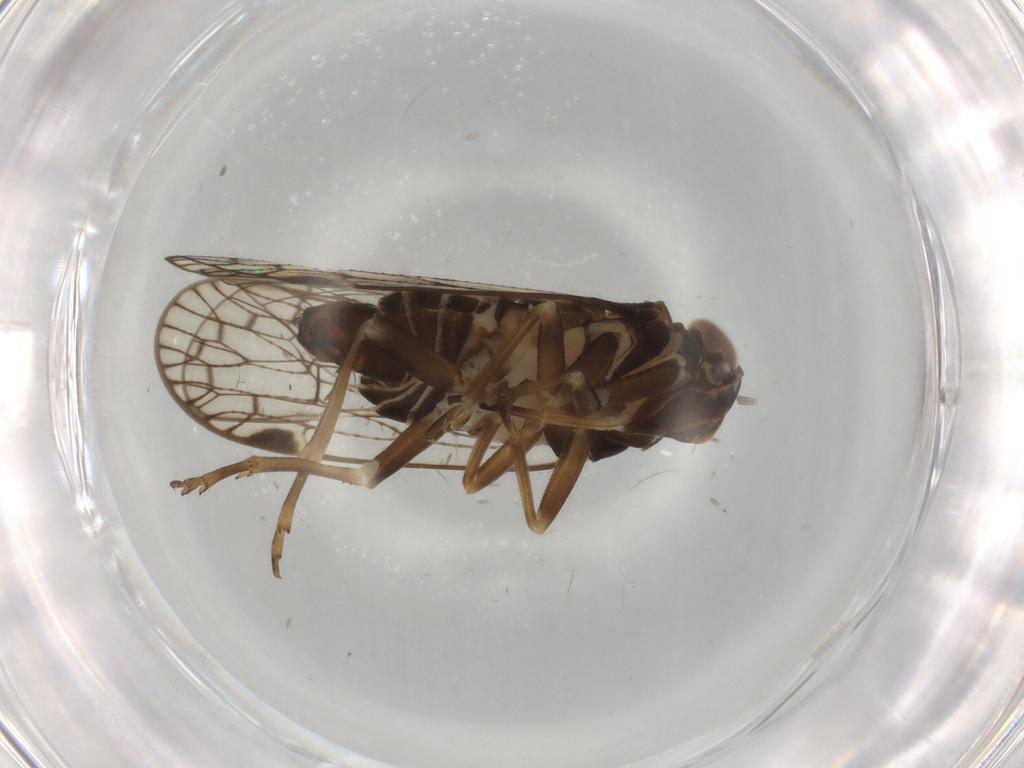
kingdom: Animalia
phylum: Arthropoda
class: Insecta
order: Hemiptera
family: Cixiidae
